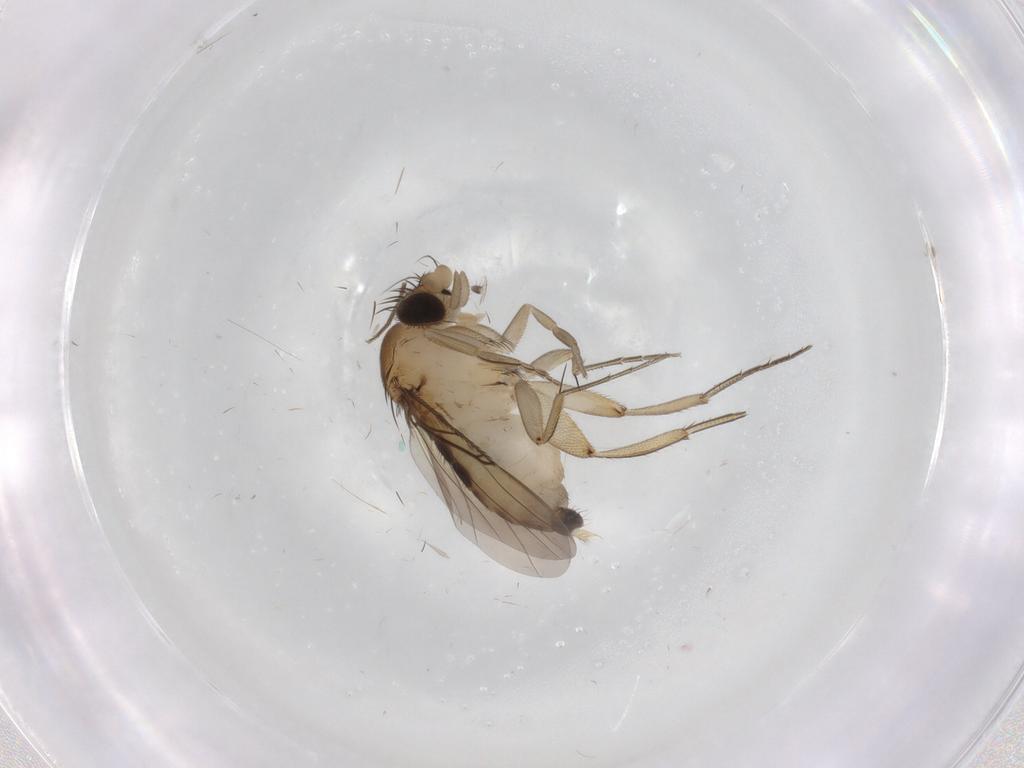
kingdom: Animalia
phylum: Arthropoda
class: Insecta
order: Diptera
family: Phoridae
